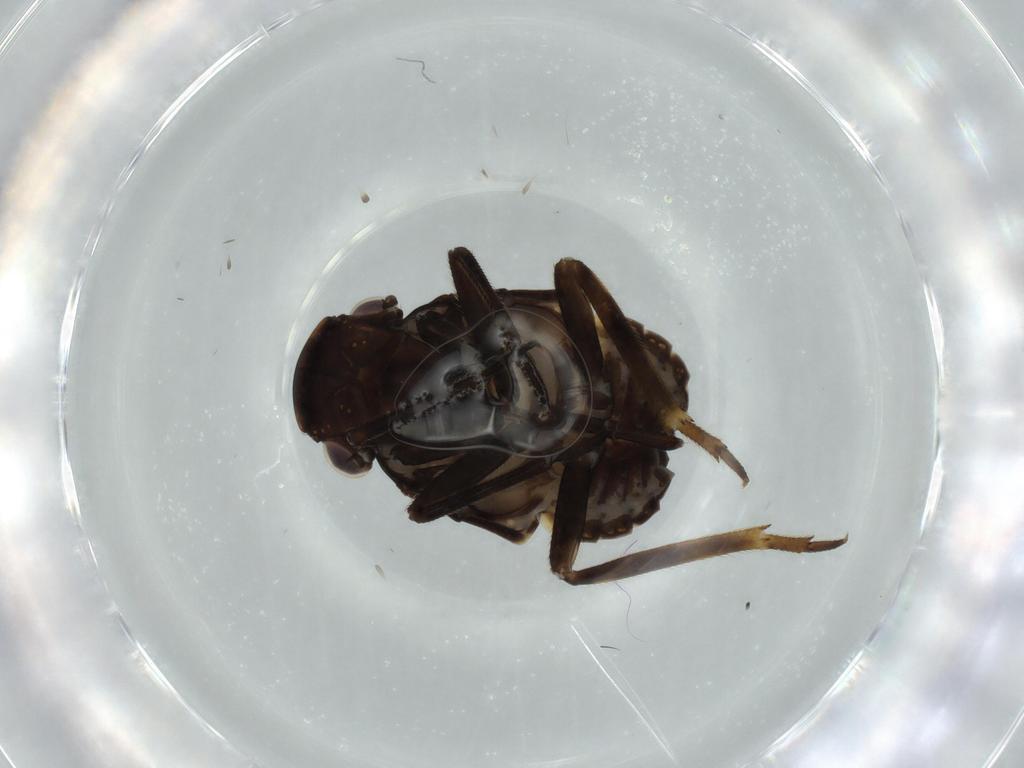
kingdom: Animalia
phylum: Arthropoda
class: Insecta
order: Hemiptera
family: Fulgoridae
